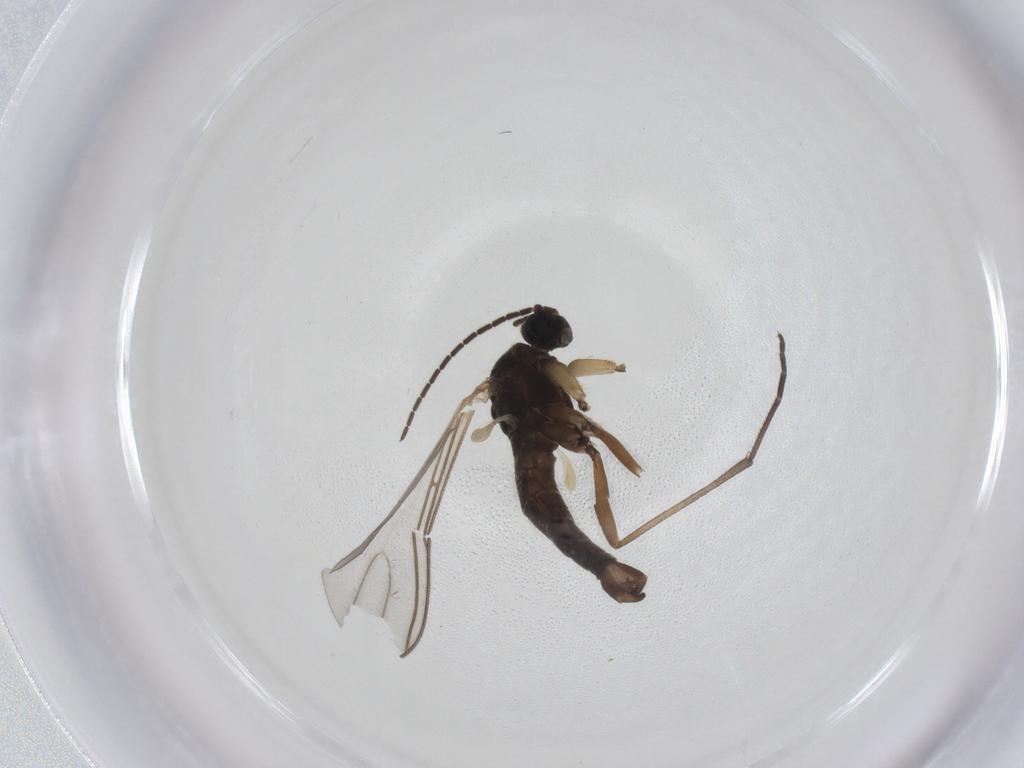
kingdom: Animalia
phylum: Arthropoda
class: Insecta
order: Diptera
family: Sciaridae
